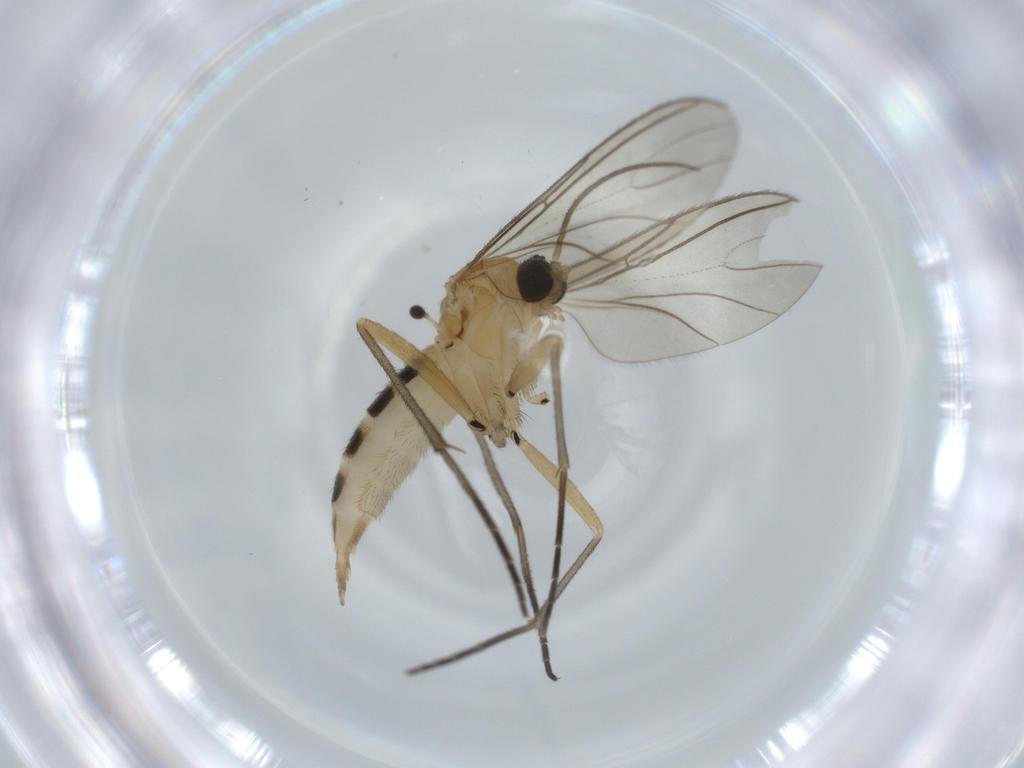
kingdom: Animalia
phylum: Arthropoda
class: Insecta
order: Diptera
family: Sciaridae
